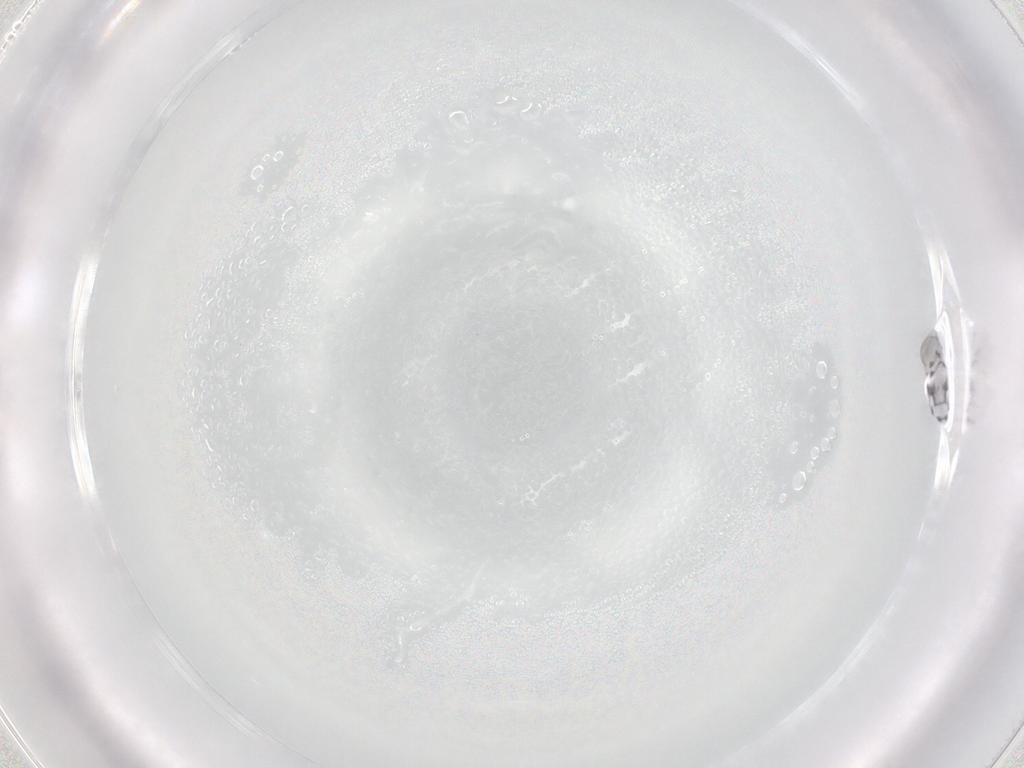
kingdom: Animalia
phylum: Arthropoda
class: Collembola
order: Entomobryomorpha
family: Entomobryidae
